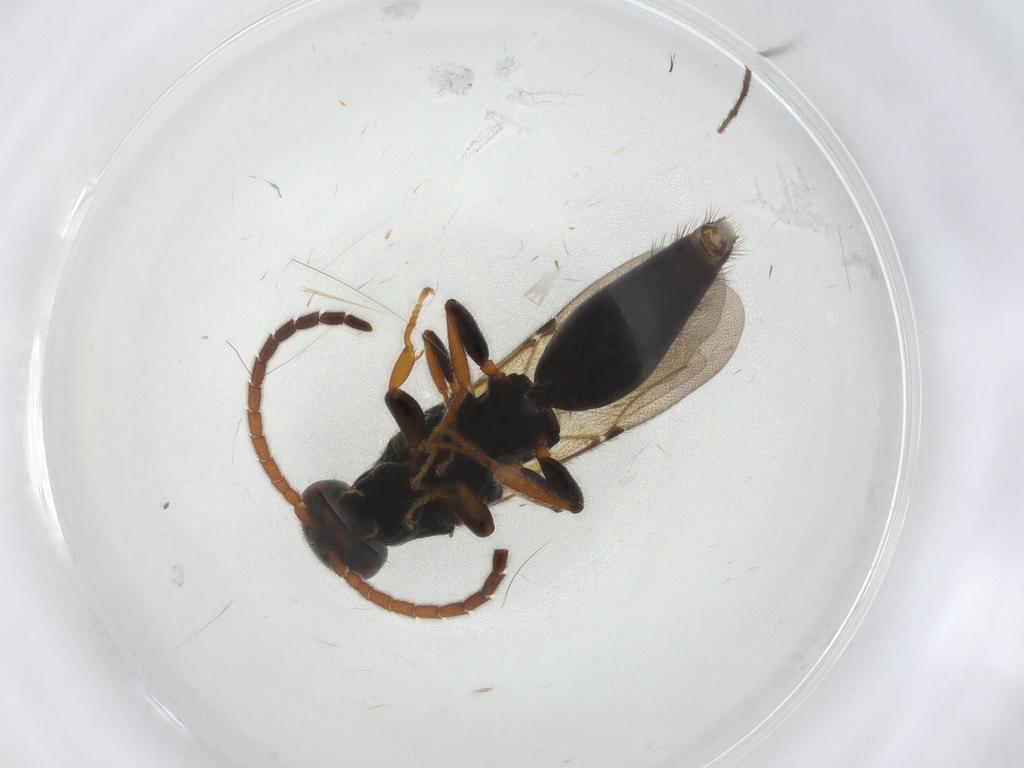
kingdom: Animalia
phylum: Arthropoda
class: Insecta
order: Hymenoptera
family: Bethylidae
